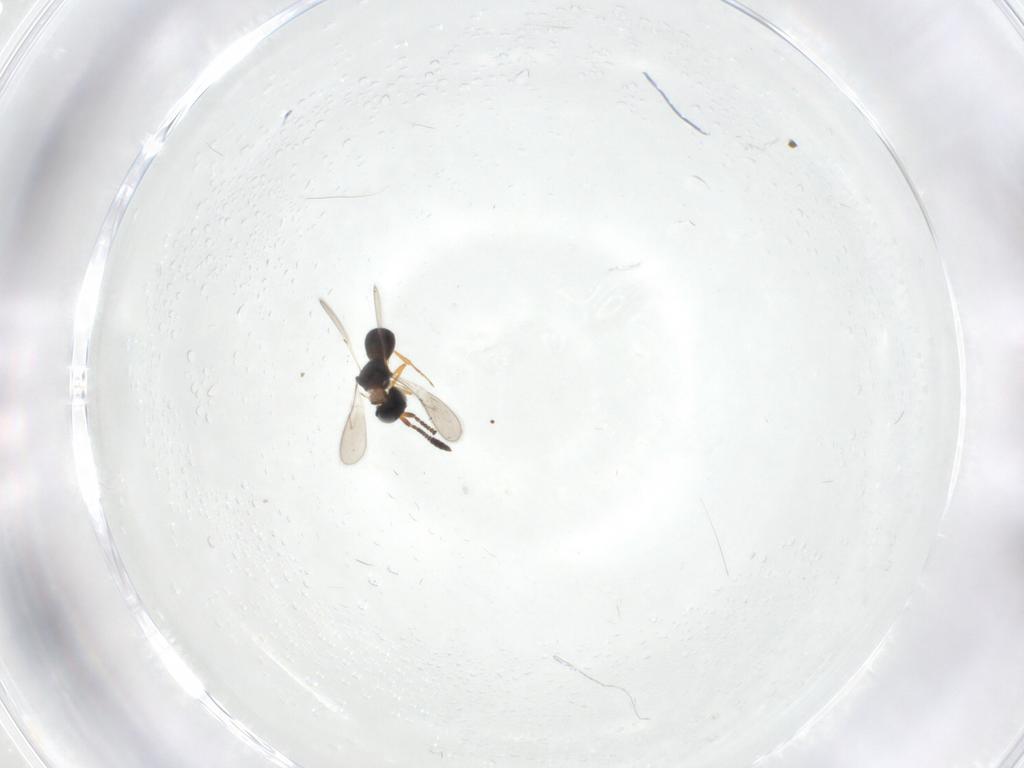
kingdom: Animalia
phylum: Arthropoda
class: Insecta
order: Hymenoptera
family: Scelionidae
